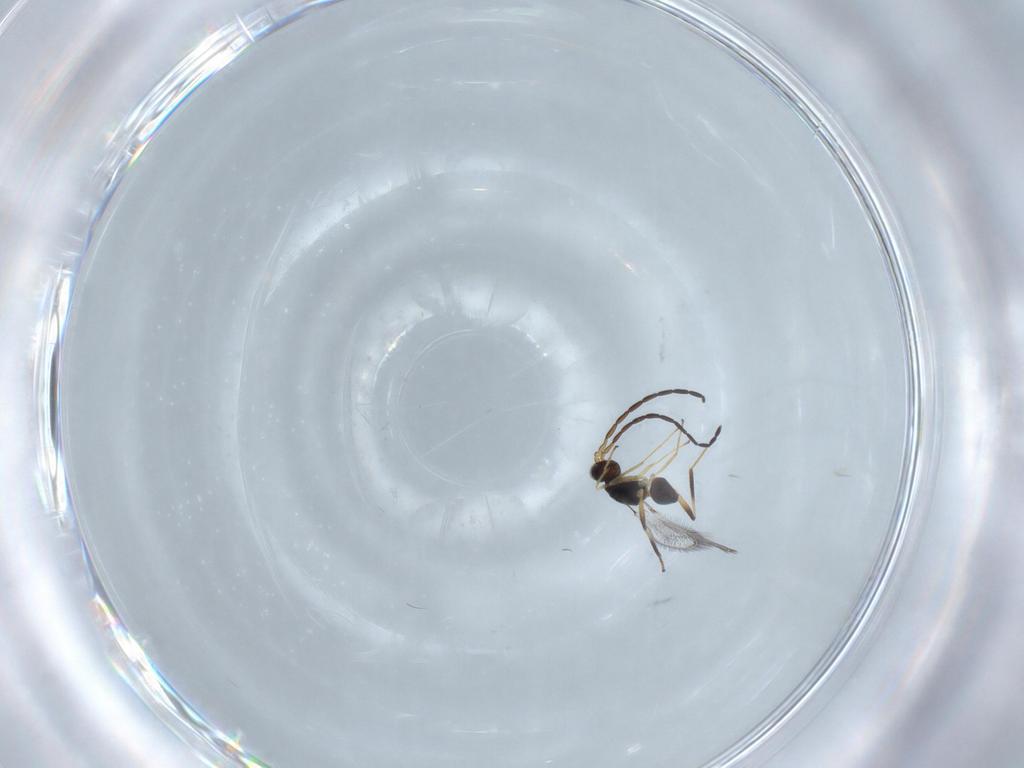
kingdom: Animalia
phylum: Arthropoda
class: Insecta
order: Hymenoptera
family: Mymaridae
